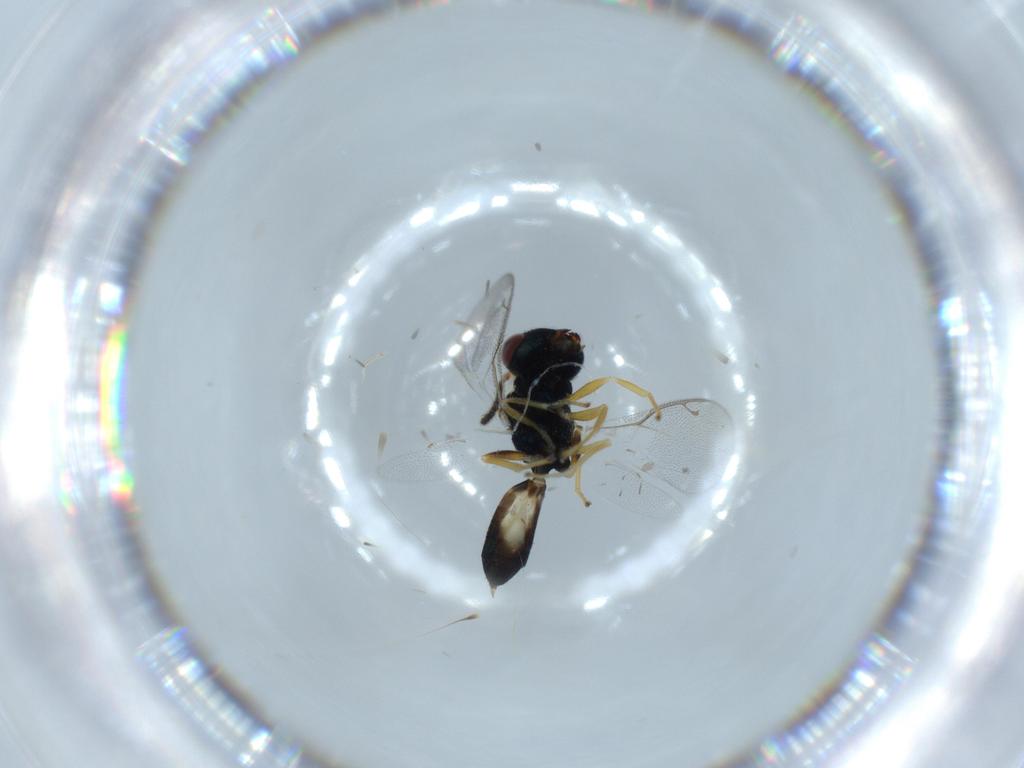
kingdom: Animalia
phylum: Arthropoda
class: Insecta
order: Hymenoptera
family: Pteromalidae
